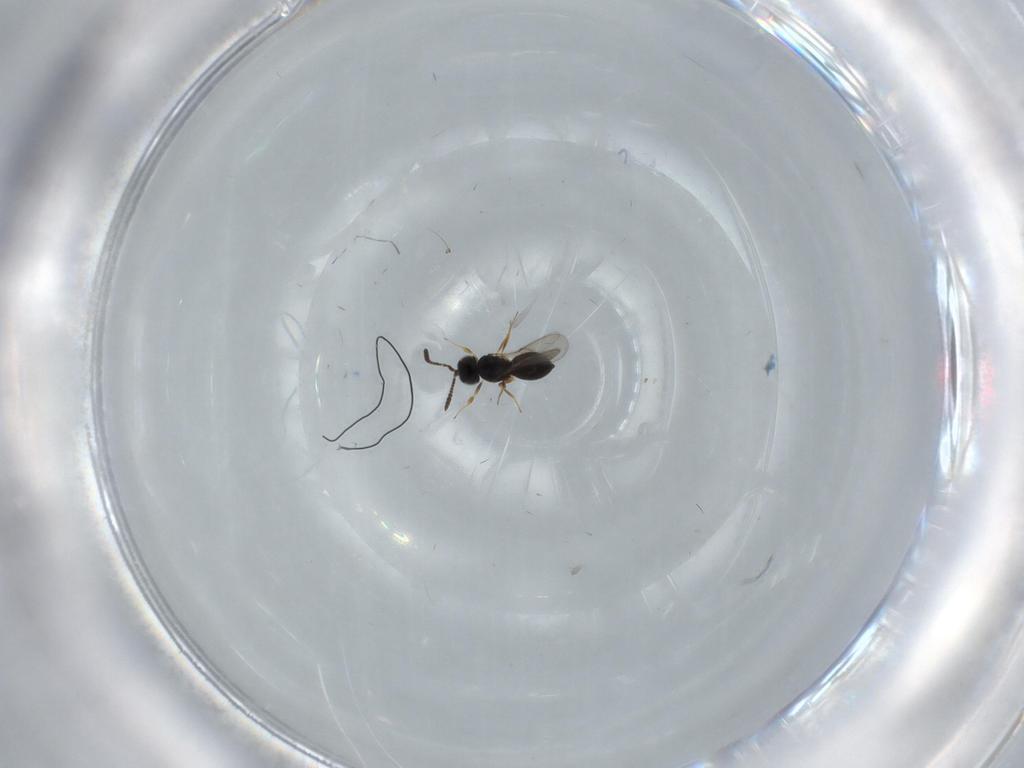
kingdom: Animalia
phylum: Arthropoda
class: Insecta
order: Hymenoptera
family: Scelionidae
